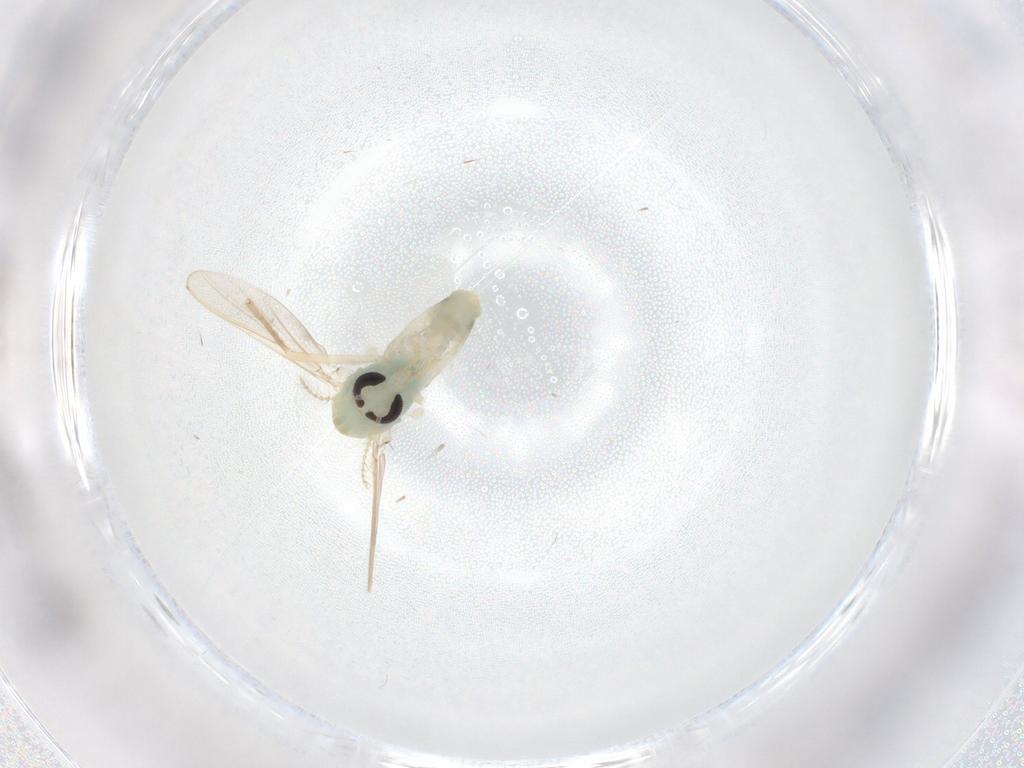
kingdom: Animalia
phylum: Arthropoda
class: Insecta
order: Diptera
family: Chironomidae
